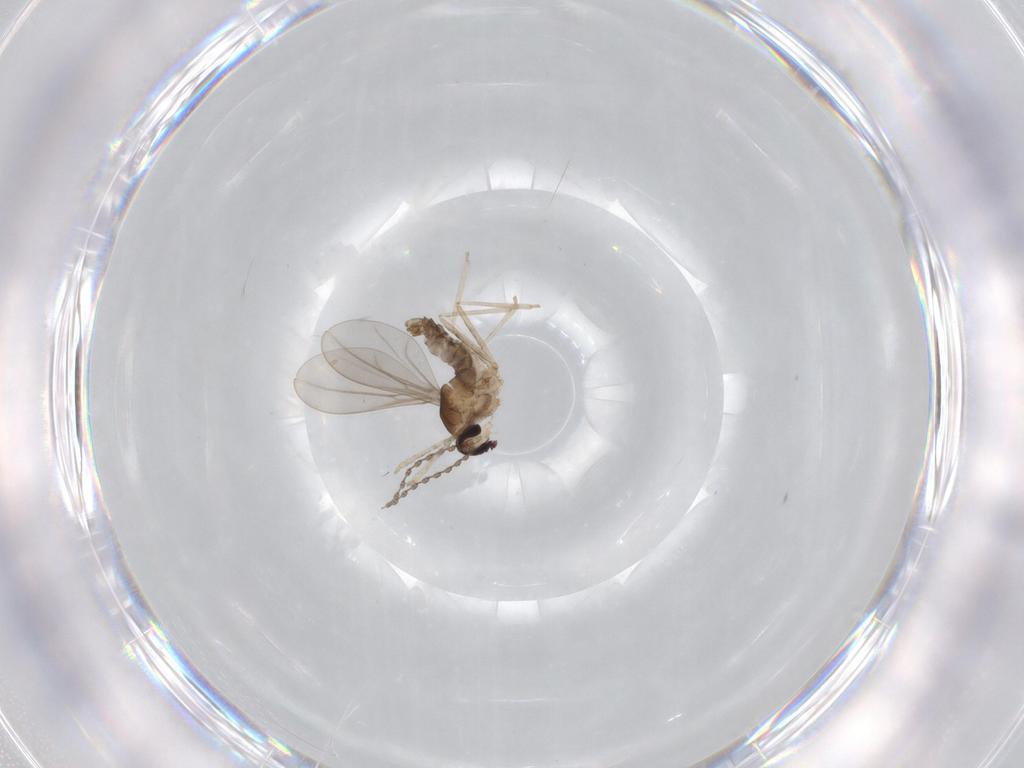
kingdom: Animalia
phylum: Arthropoda
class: Insecta
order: Diptera
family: Cecidomyiidae
